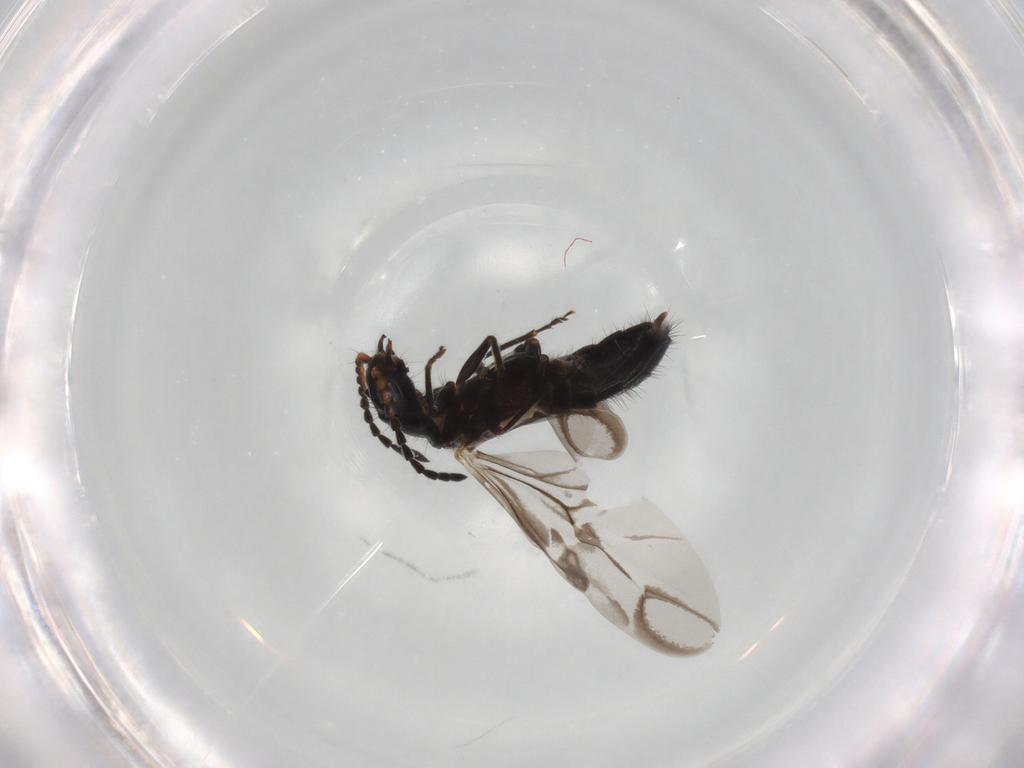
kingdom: Animalia
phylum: Arthropoda
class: Insecta
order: Coleoptera
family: Melyridae
